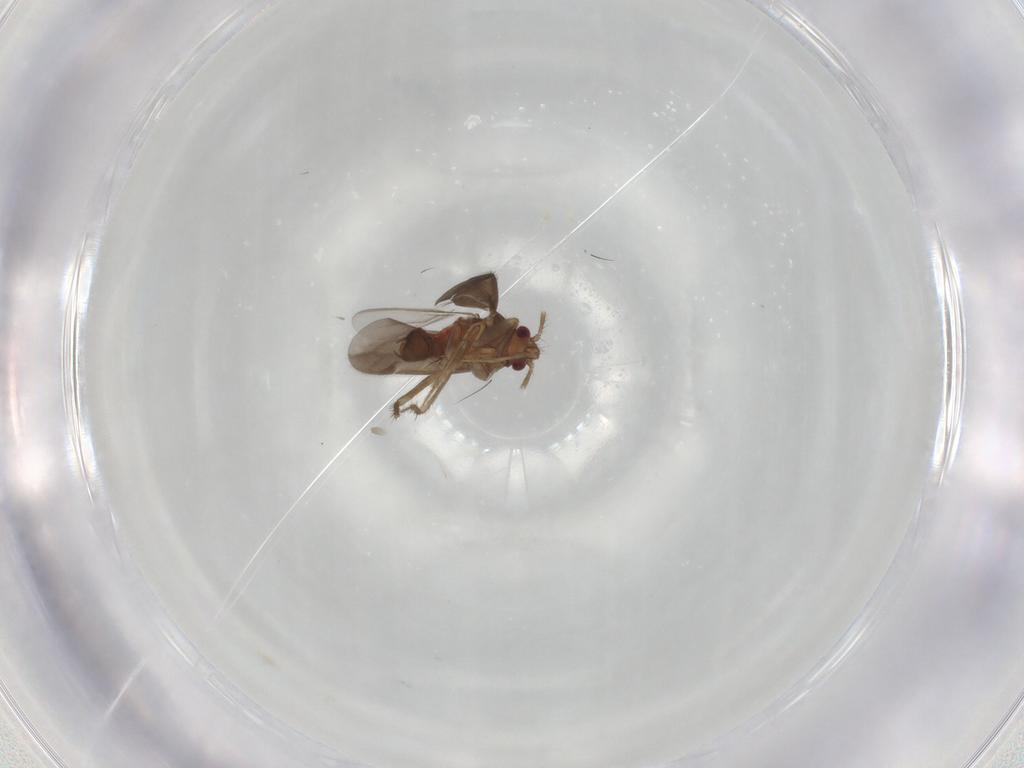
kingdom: Animalia
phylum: Arthropoda
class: Insecta
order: Hemiptera
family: Ceratocombidae
